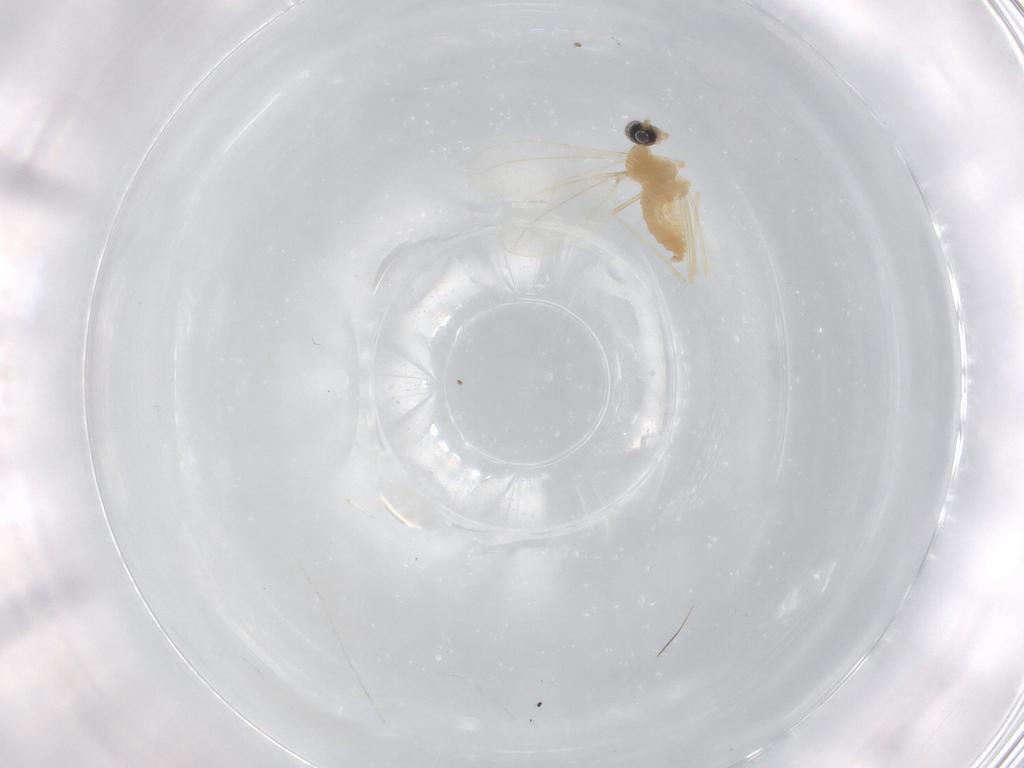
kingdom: Animalia
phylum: Arthropoda
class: Insecta
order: Diptera
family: Cecidomyiidae
